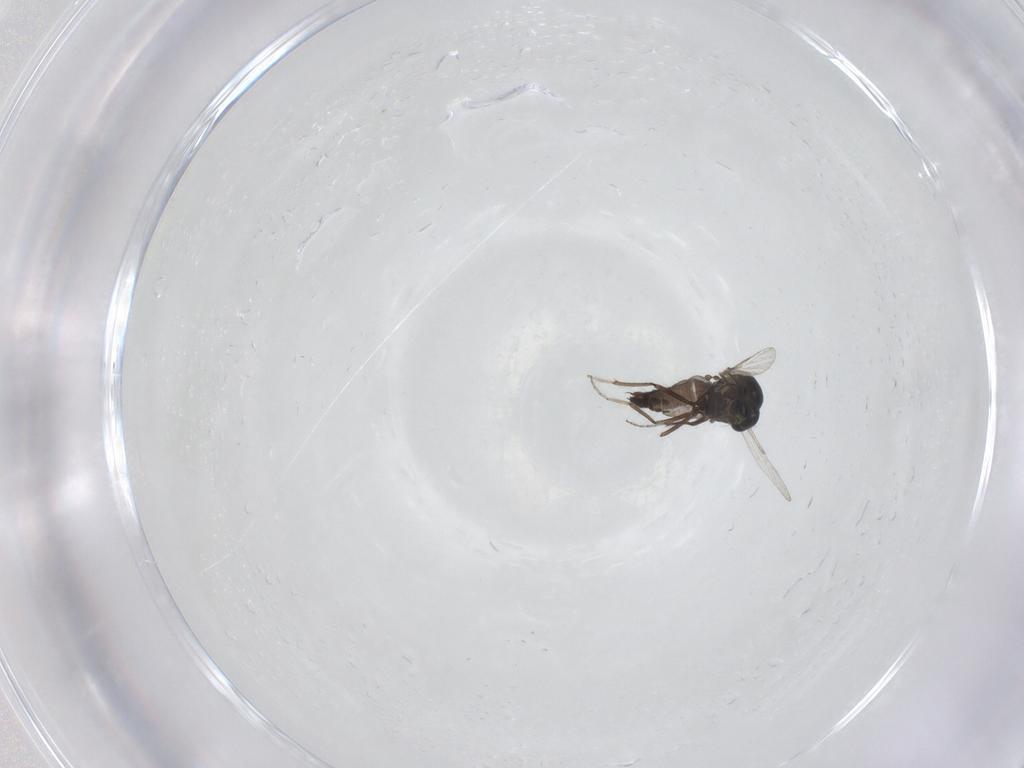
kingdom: Animalia
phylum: Arthropoda
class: Insecta
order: Diptera
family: Ceratopogonidae
